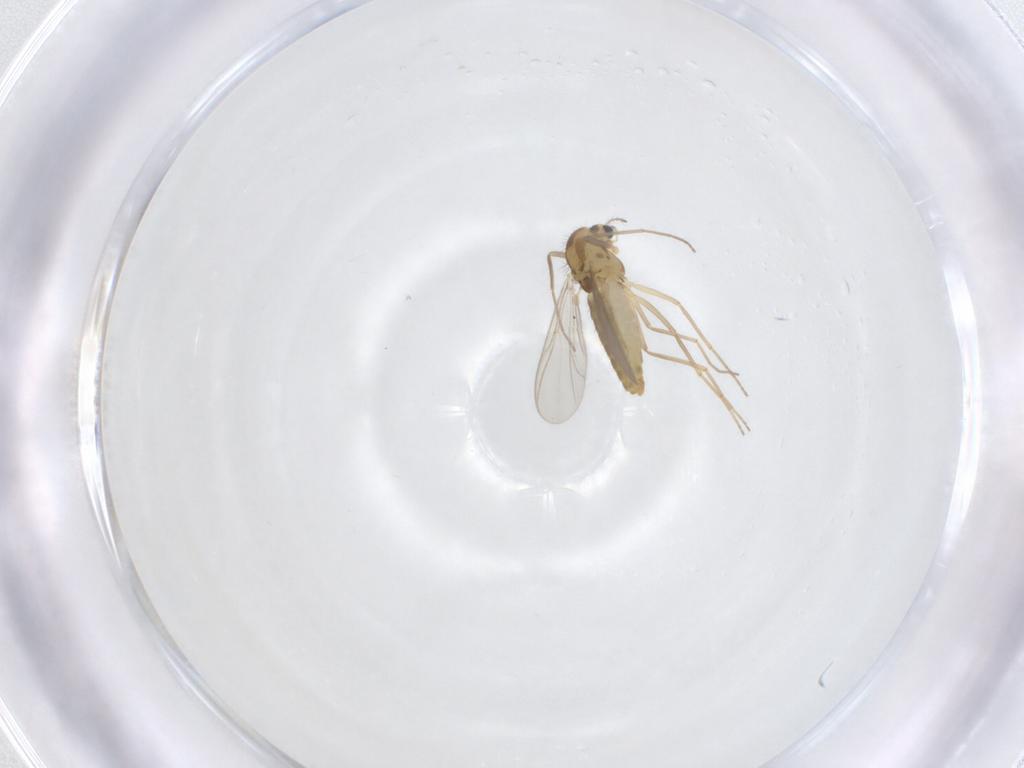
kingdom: Animalia
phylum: Arthropoda
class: Insecta
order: Diptera
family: Chironomidae
